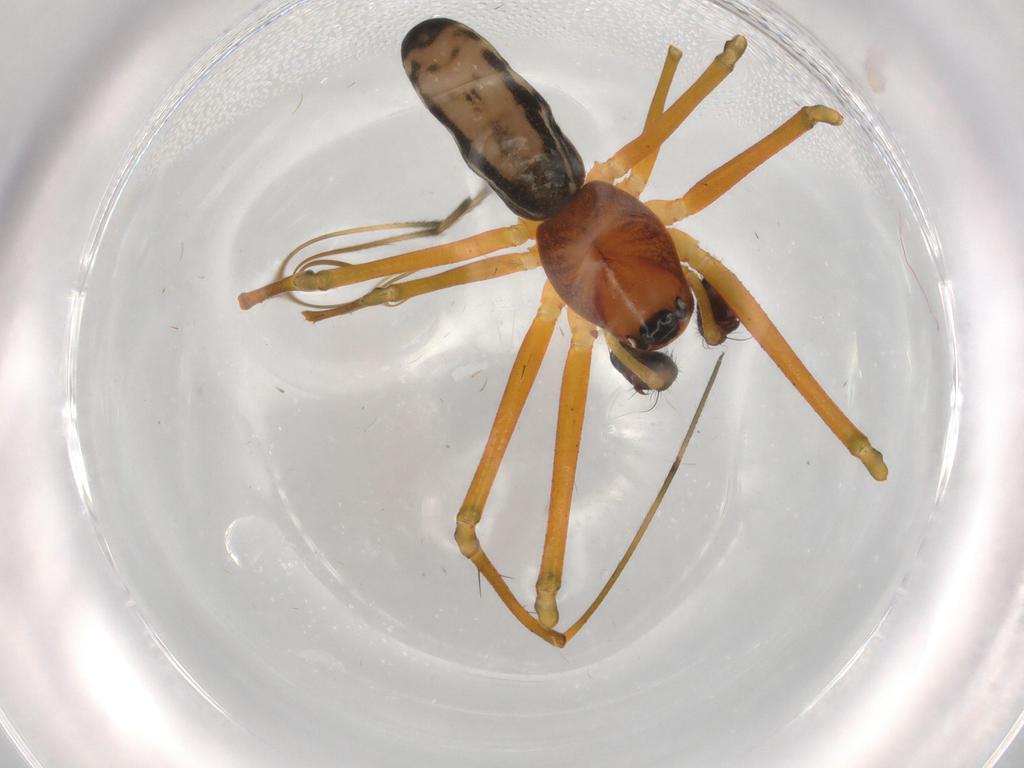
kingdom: Animalia
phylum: Arthropoda
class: Arachnida
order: Araneae
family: Linyphiidae
